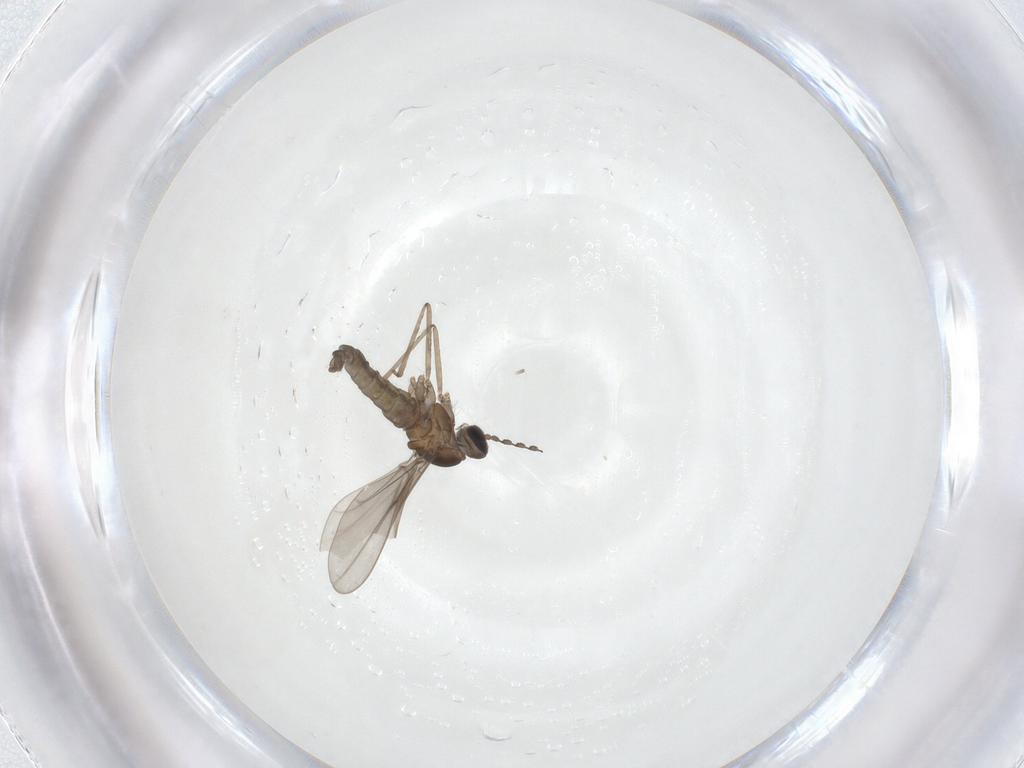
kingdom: Animalia
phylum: Arthropoda
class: Insecta
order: Diptera
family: Cecidomyiidae
